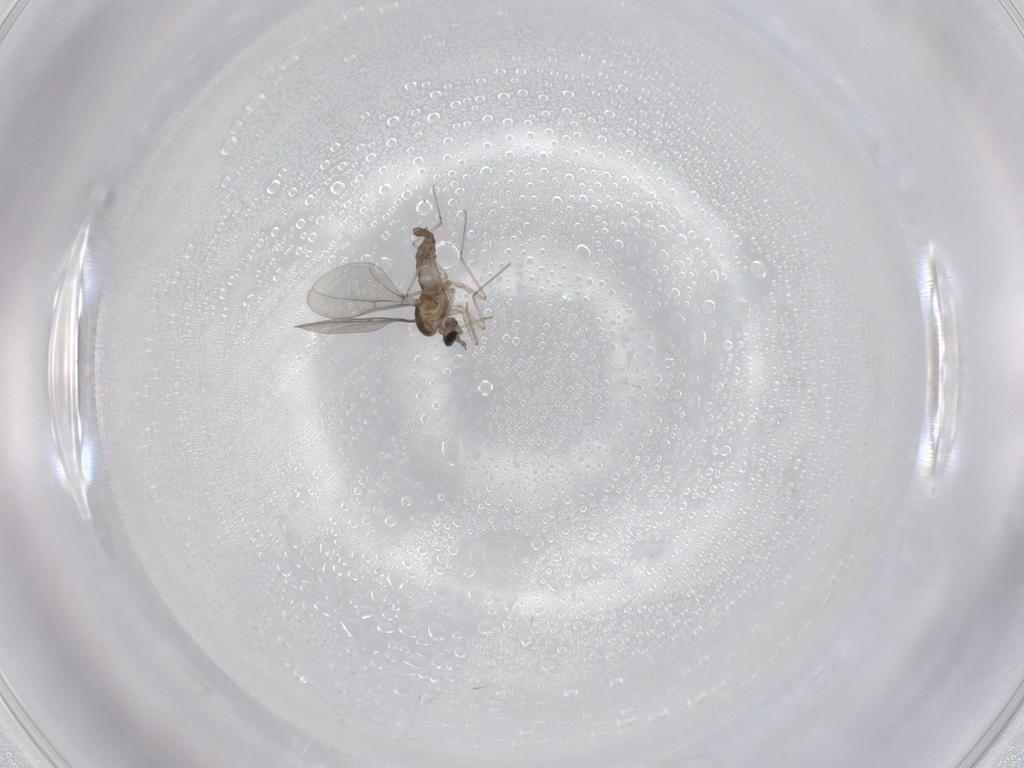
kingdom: Animalia
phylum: Arthropoda
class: Insecta
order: Diptera
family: Cecidomyiidae
